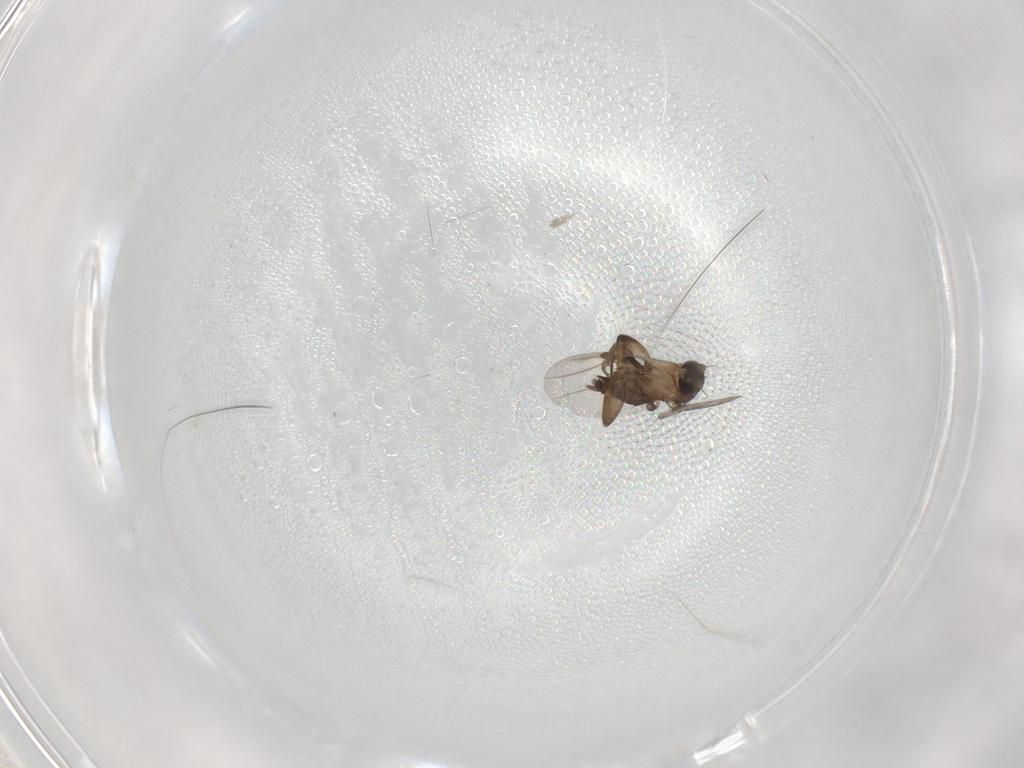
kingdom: Animalia
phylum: Arthropoda
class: Insecta
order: Diptera
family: Phoridae
